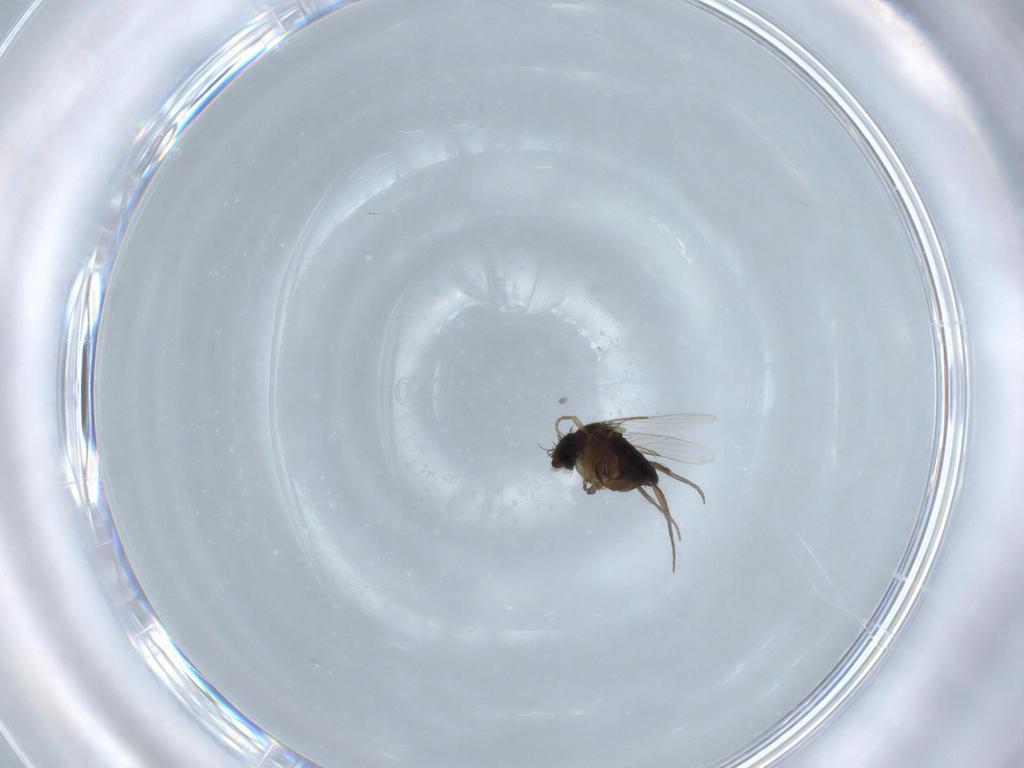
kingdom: Animalia
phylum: Arthropoda
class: Insecta
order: Diptera
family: Phoridae
